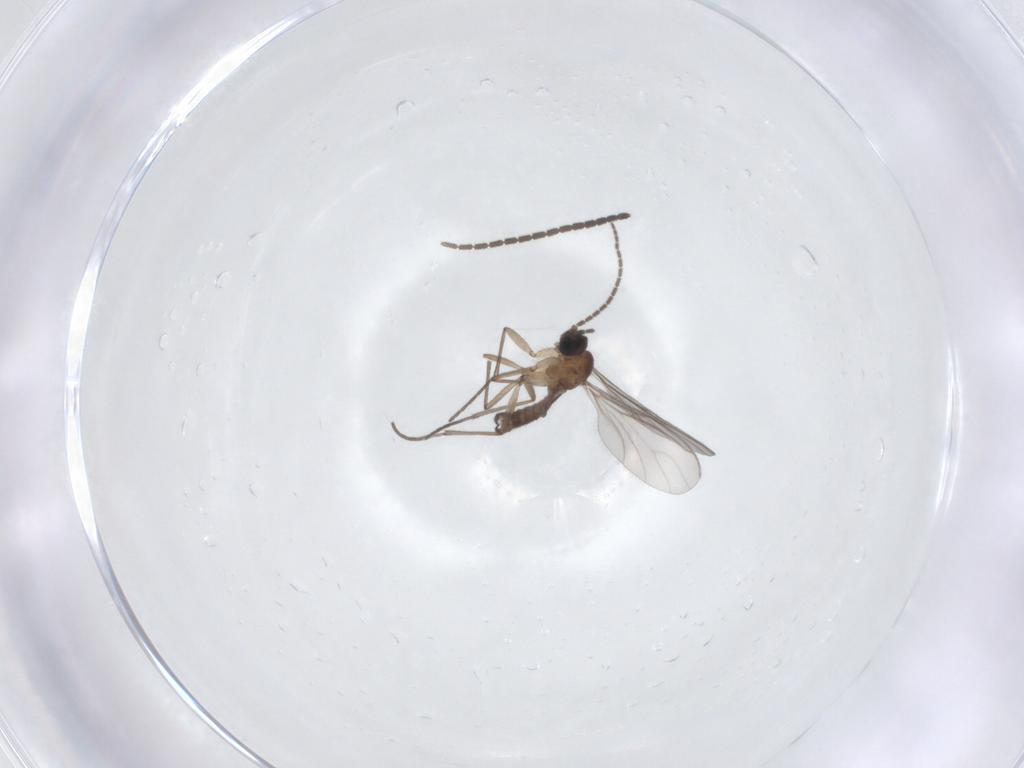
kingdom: Animalia
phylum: Arthropoda
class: Insecta
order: Diptera
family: Sciaridae
